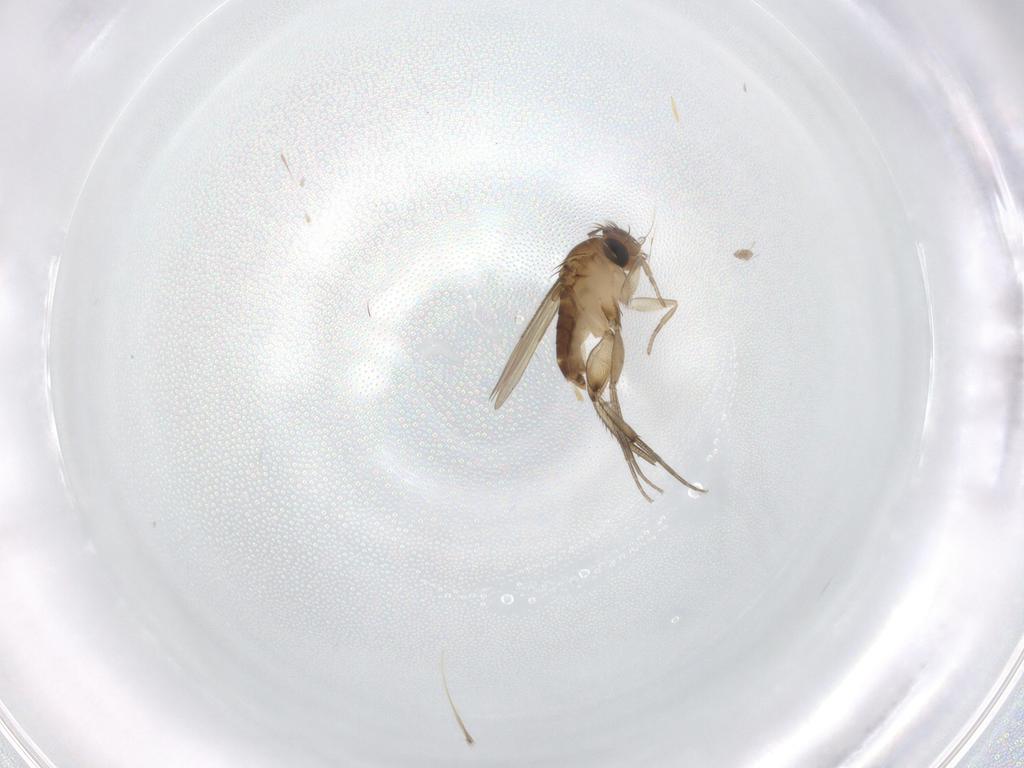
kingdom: Animalia
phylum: Arthropoda
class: Insecta
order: Diptera
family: Phoridae
